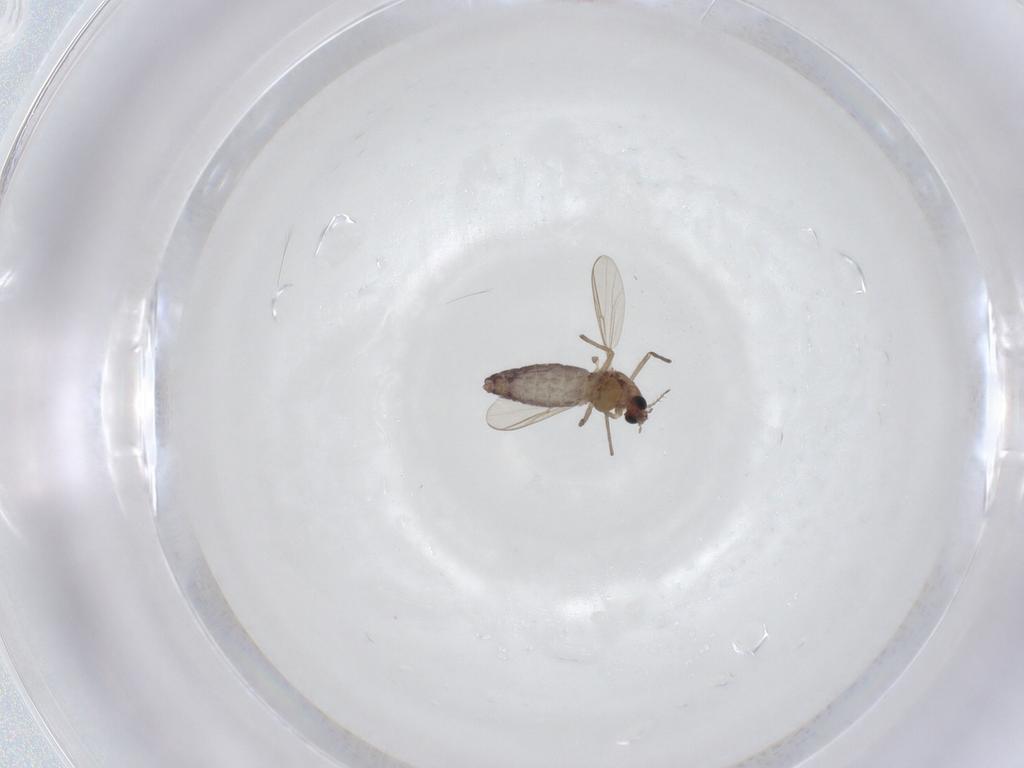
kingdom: Animalia
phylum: Arthropoda
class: Insecta
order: Diptera
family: Chironomidae
